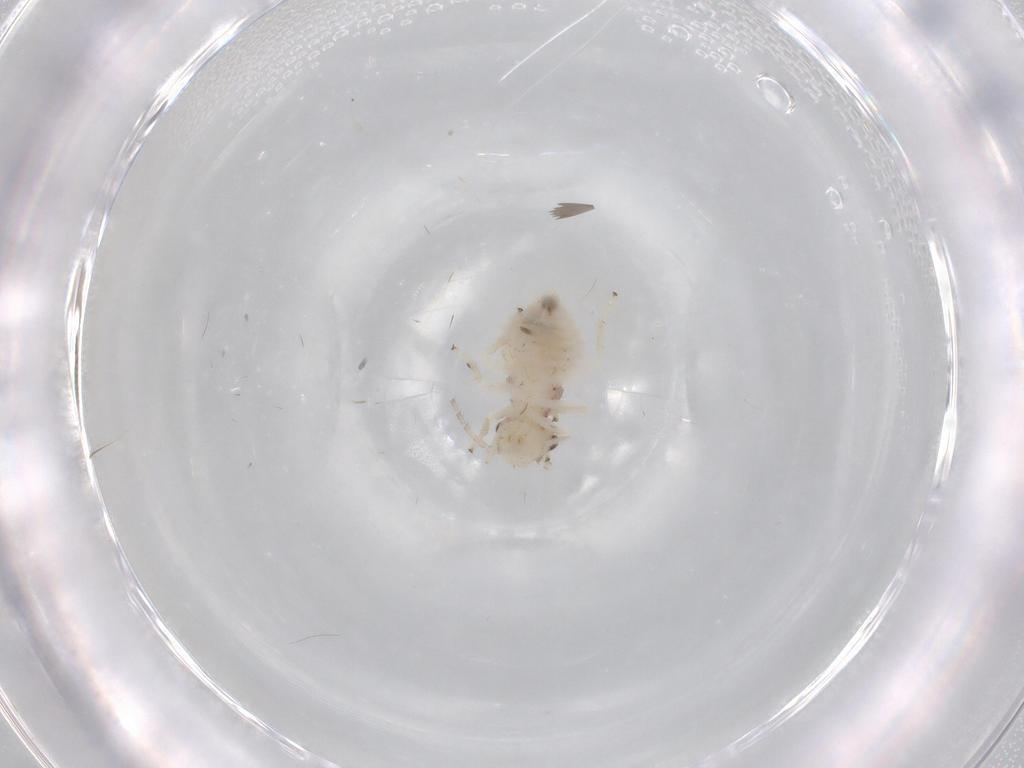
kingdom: Animalia
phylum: Arthropoda
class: Insecta
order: Psocodea
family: Amphipsocidae
